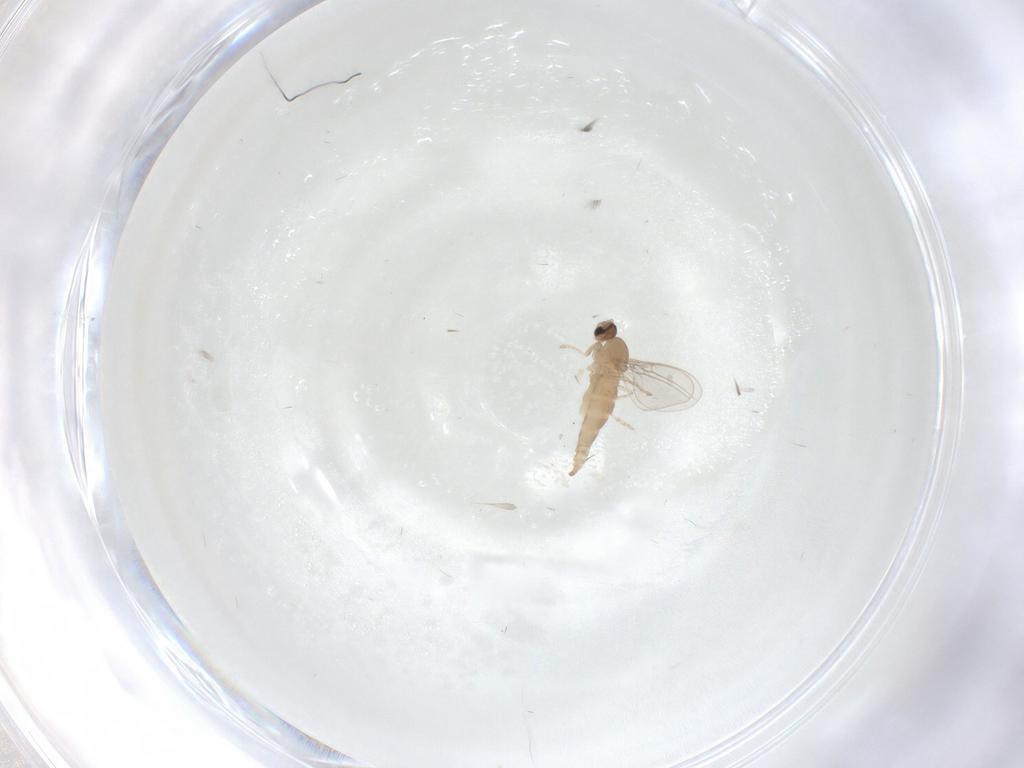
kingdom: Animalia
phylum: Arthropoda
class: Insecta
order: Diptera
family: Cecidomyiidae
